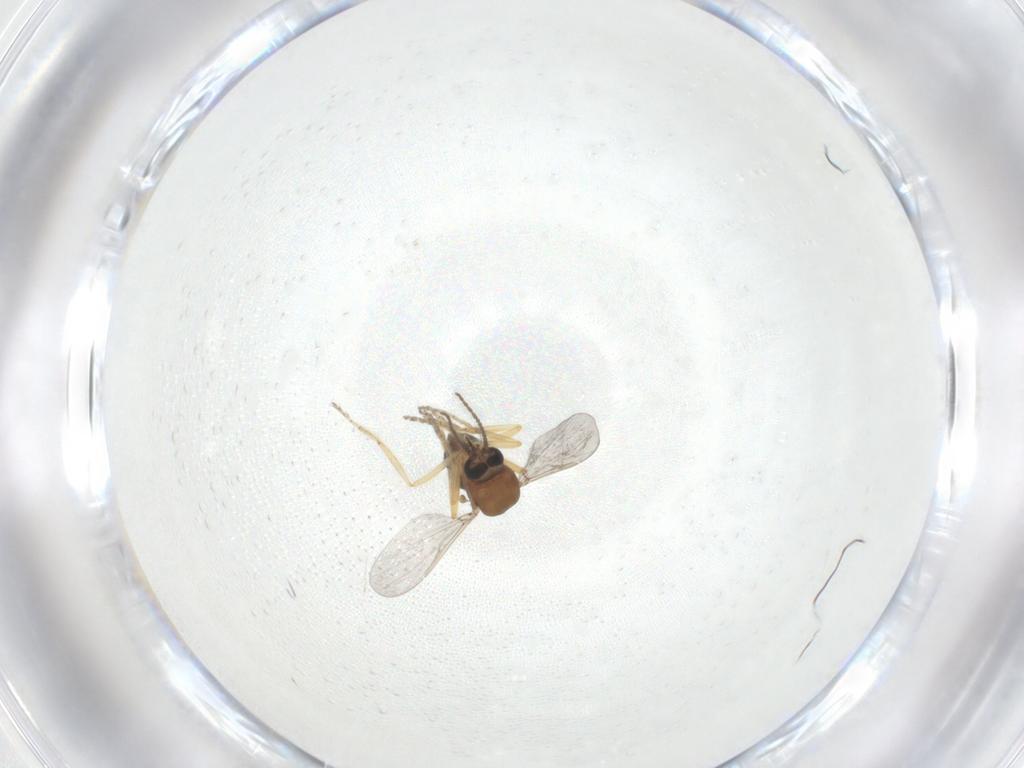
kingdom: Animalia
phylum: Arthropoda
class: Insecta
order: Diptera
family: Ceratopogonidae
